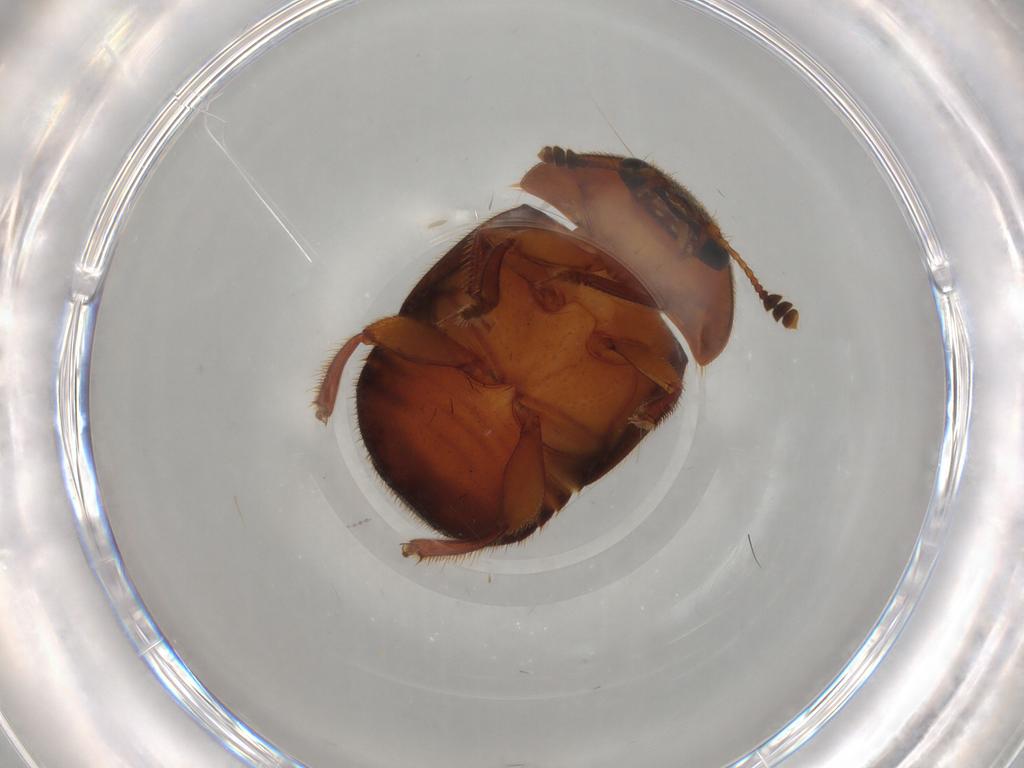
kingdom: Animalia
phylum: Arthropoda
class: Insecta
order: Coleoptera
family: Nitidulidae
